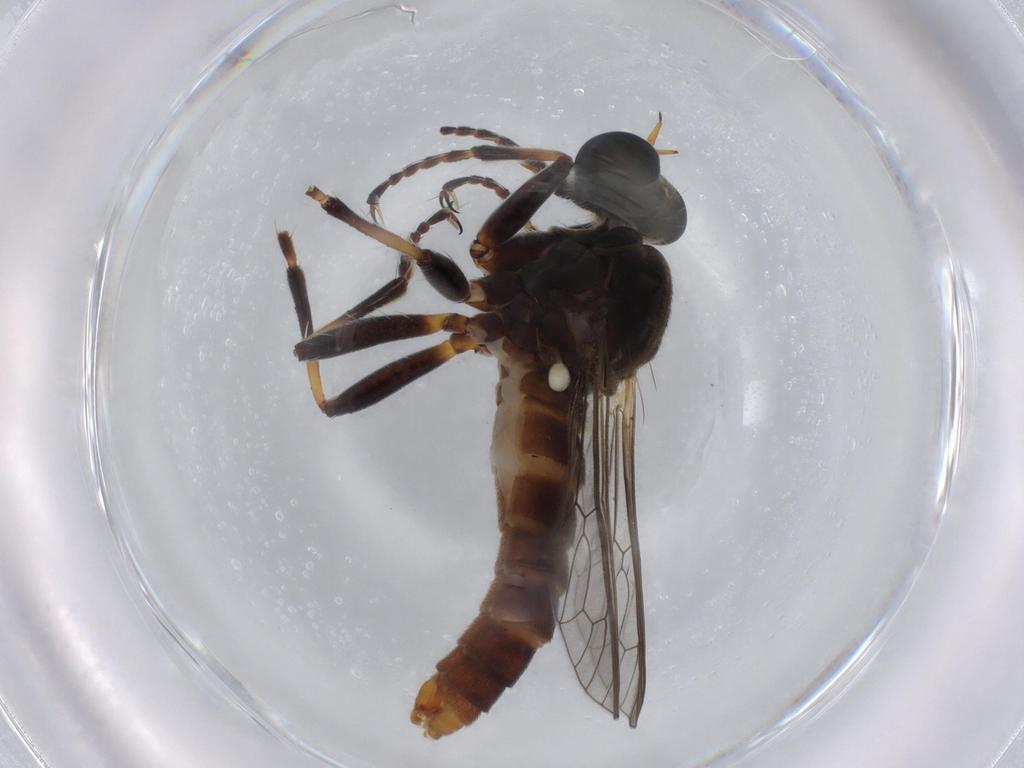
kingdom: Animalia
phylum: Arthropoda
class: Insecta
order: Diptera
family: Asilidae
